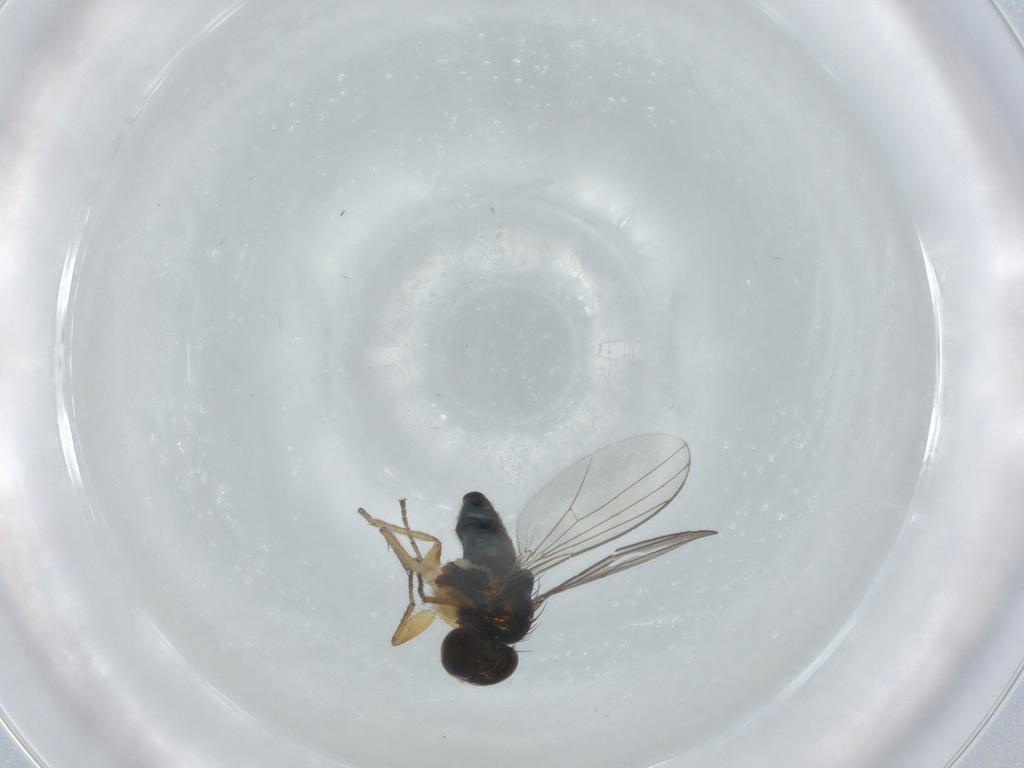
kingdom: Animalia
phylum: Arthropoda
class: Insecta
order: Diptera
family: Dolichopodidae
